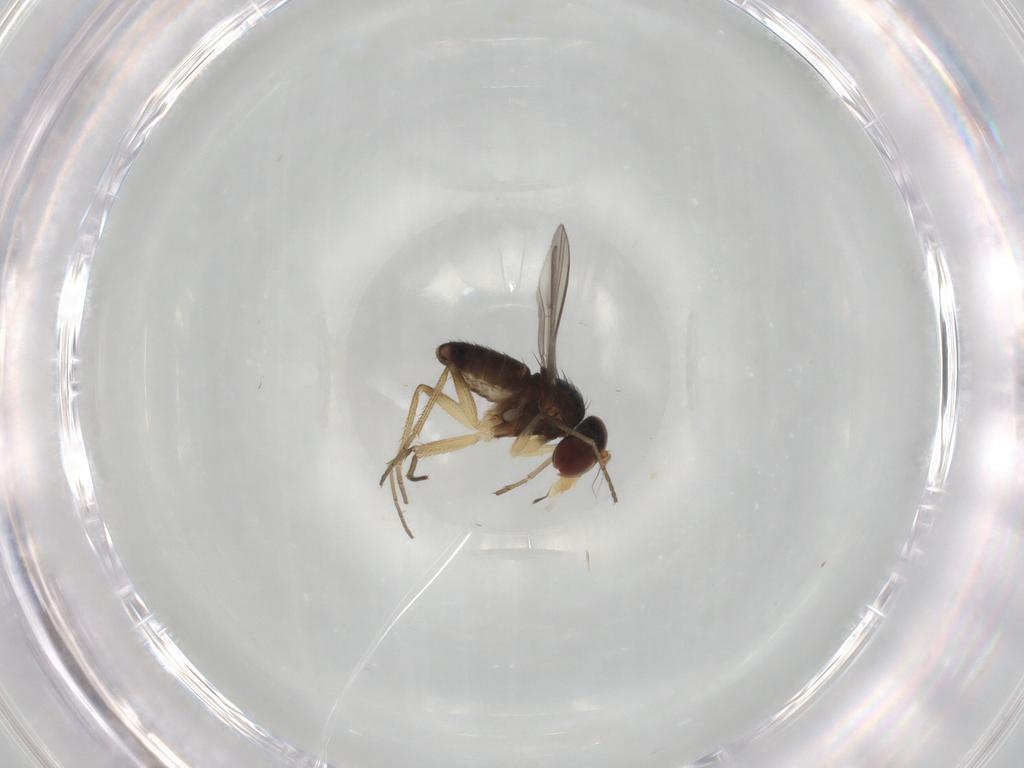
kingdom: Animalia
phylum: Arthropoda
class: Insecta
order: Diptera
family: Dolichopodidae
